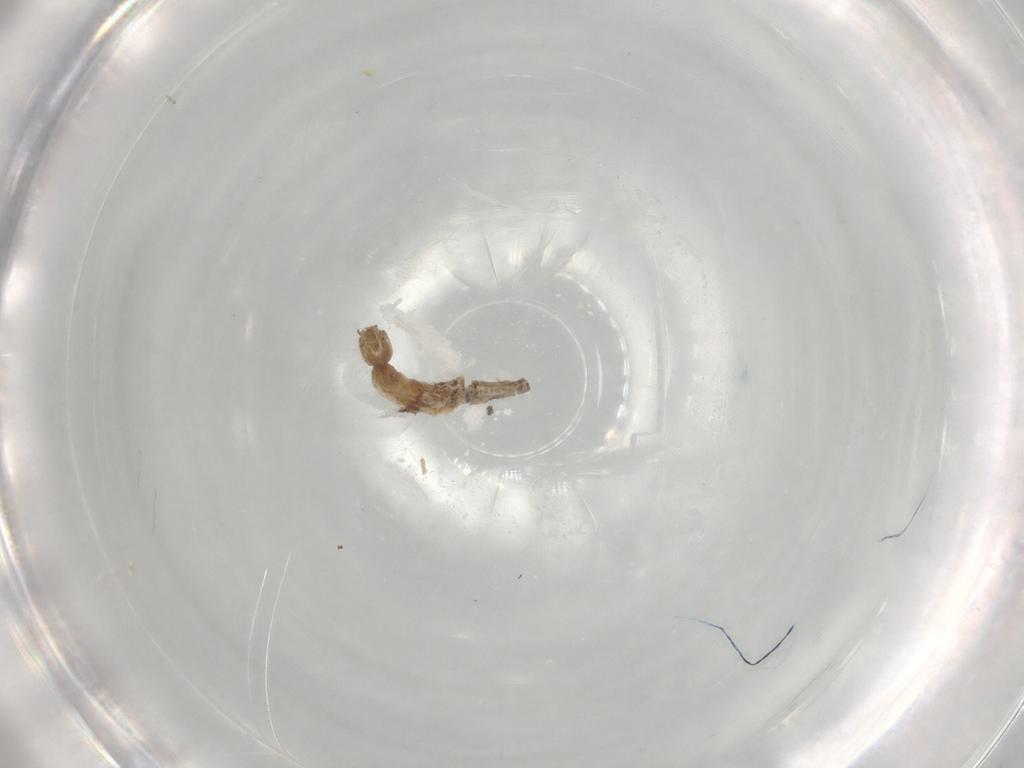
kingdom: Animalia
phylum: Arthropoda
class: Insecta
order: Diptera
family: Chironomidae
